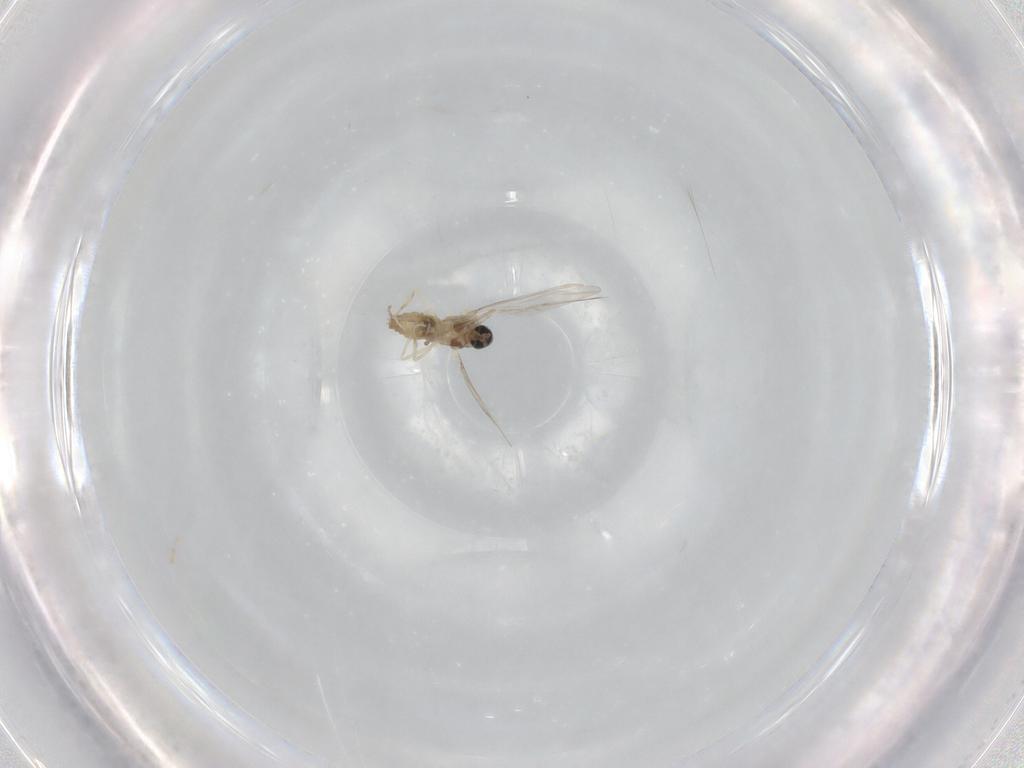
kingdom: Animalia
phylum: Arthropoda
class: Insecta
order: Diptera
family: Cecidomyiidae
